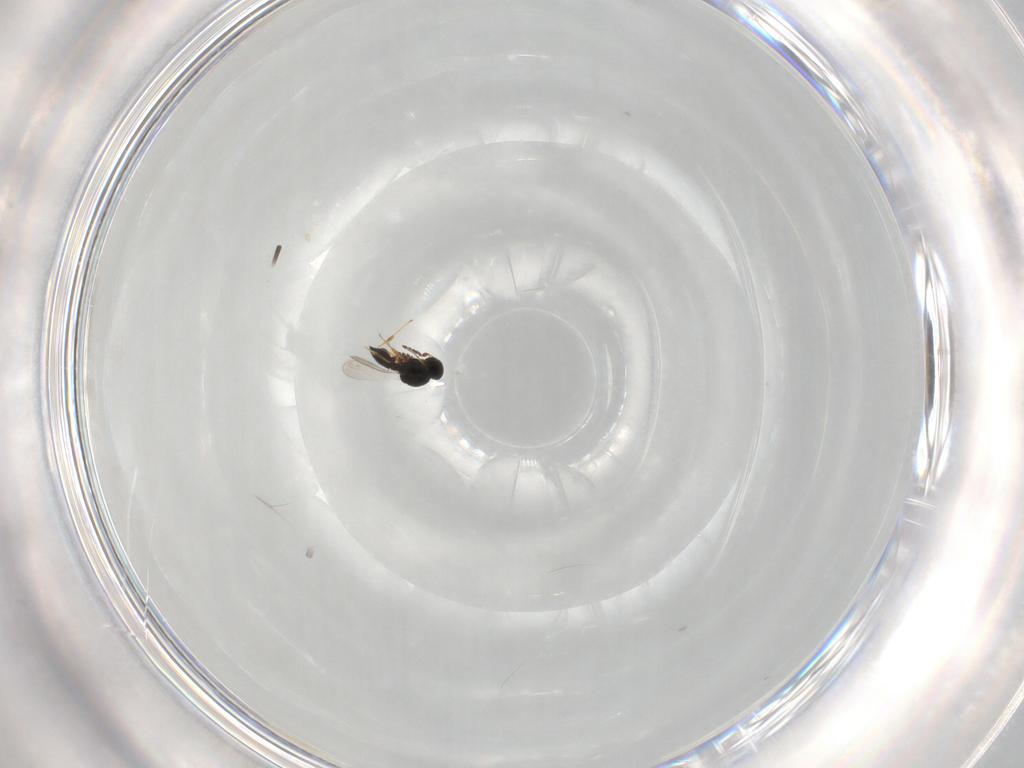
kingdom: Animalia
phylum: Arthropoda
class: Insecta
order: Hymenoptera
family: Platygastridae
